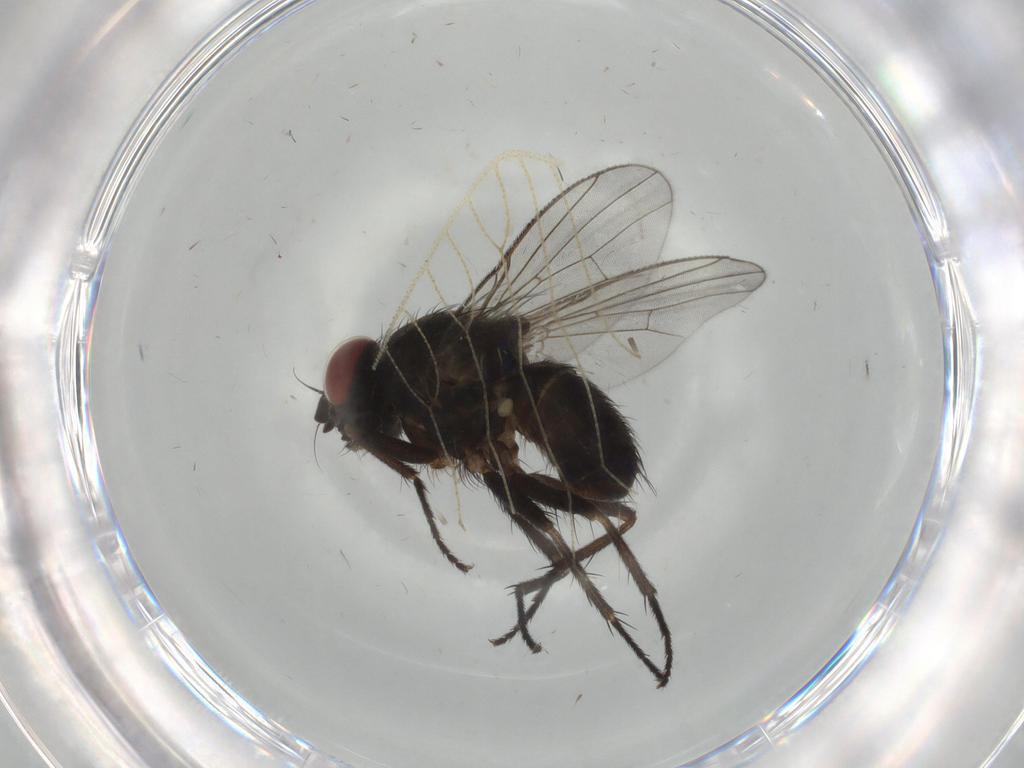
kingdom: Animalia
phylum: Arthropoda
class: Insecta
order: Diptera
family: Muscidae
